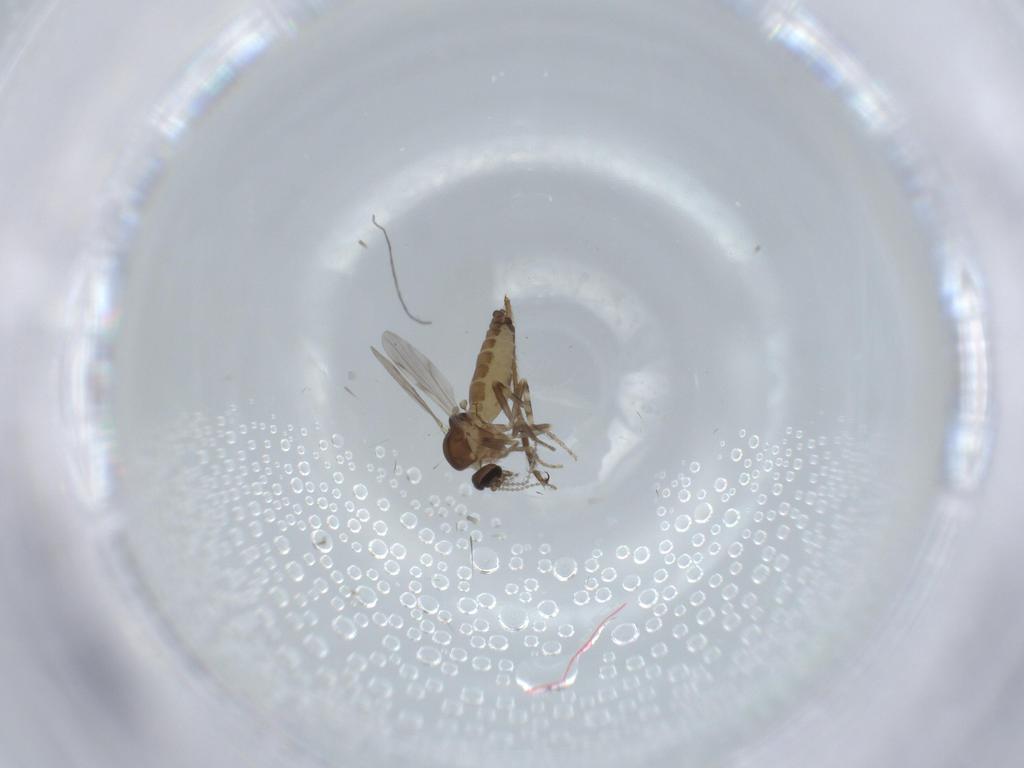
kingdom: Animalia
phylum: Arthropoda
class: Insecta
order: Diptera
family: Ceratopogonidae
